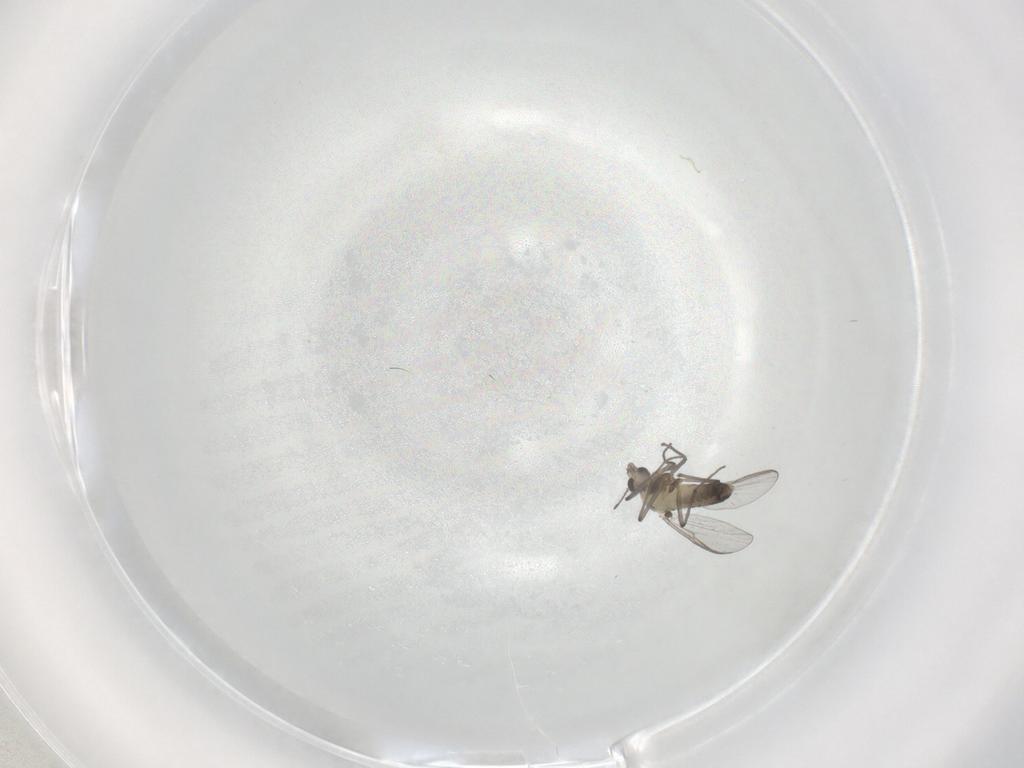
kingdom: Animalia
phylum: Arthropoda
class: Insecta
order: Diptera
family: Chironomidae
